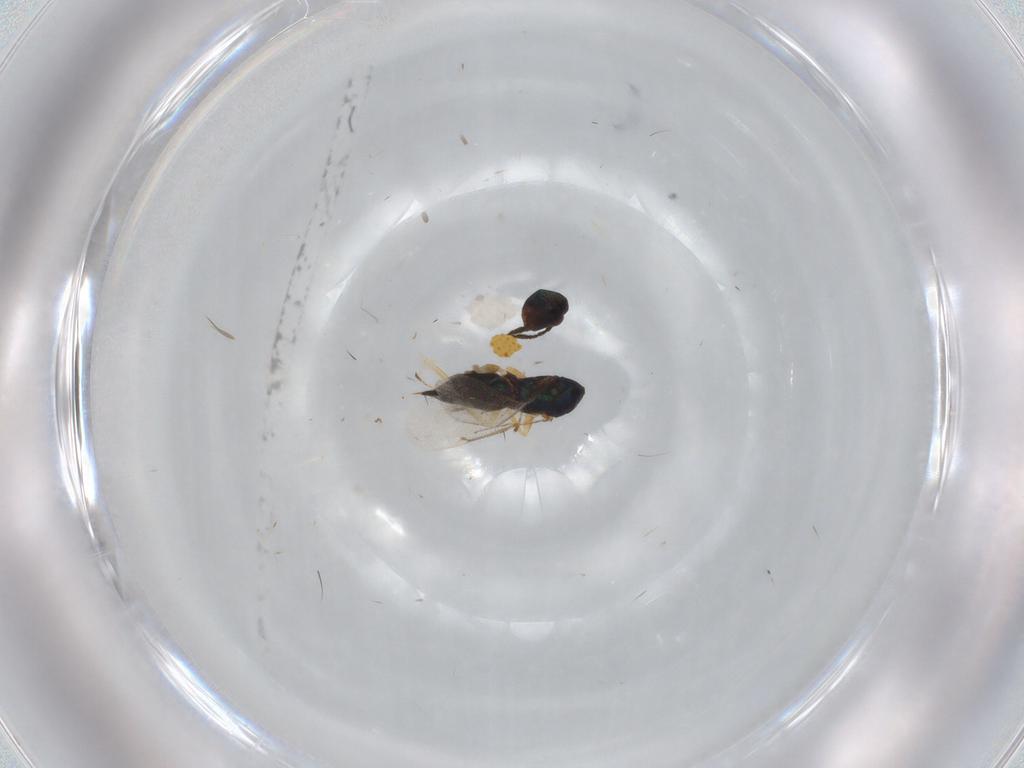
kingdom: Animalia
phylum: Arthropoda
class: Insecta
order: Hymenoptera
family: Eulophidae
